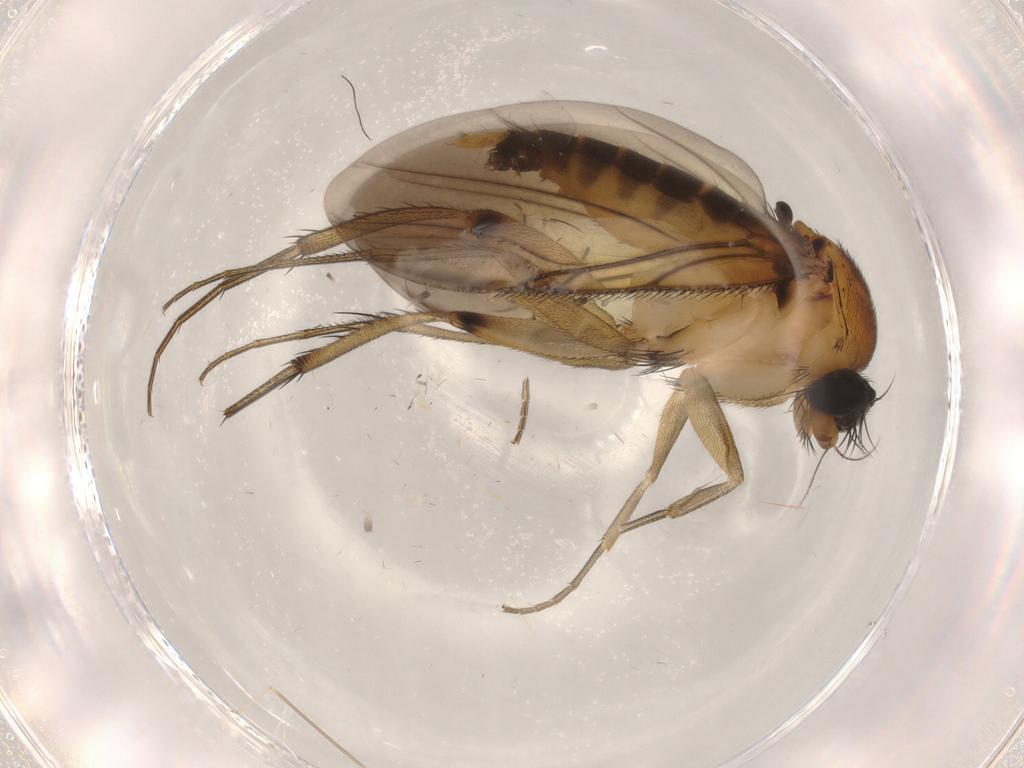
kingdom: Animalia
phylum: Arthropoda
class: Insecta
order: Diptera
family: Phoridae
